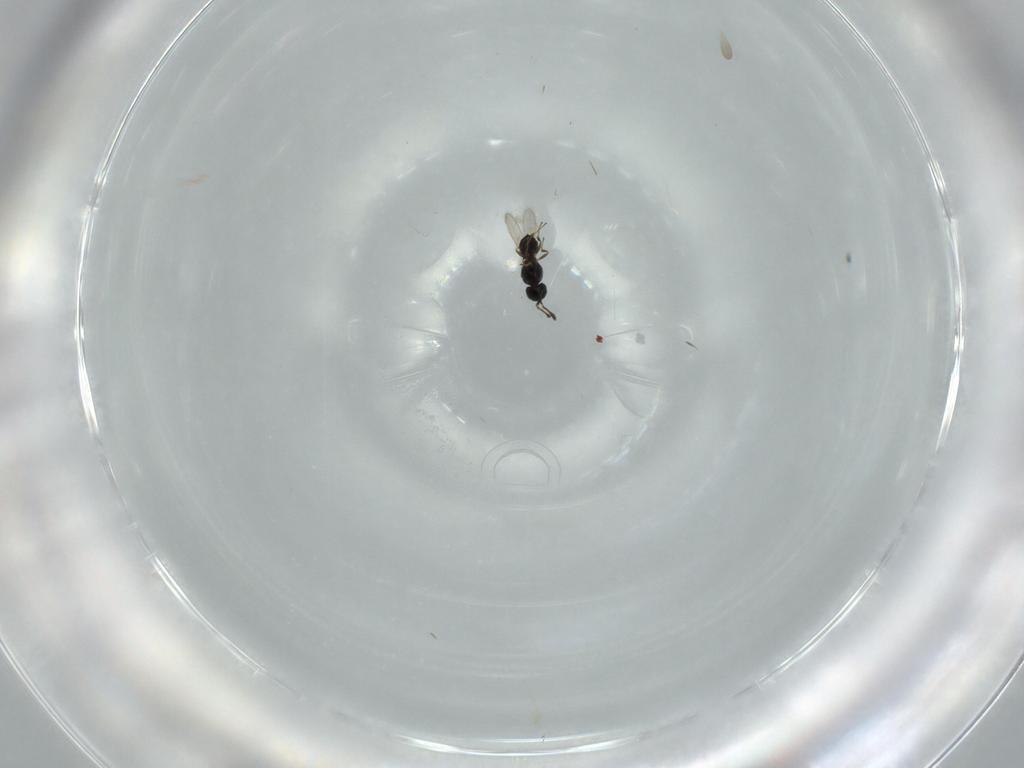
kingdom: Animalia
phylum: Arthropoda
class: Insecta
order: Hymenoptera
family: Scelionidae
